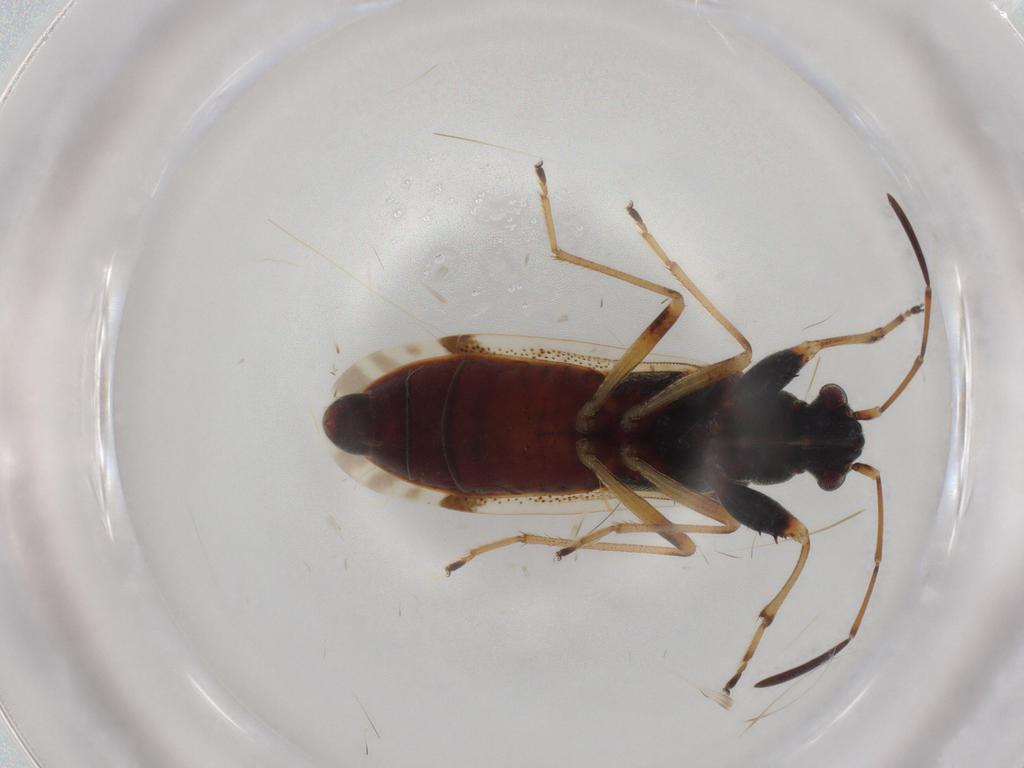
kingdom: Animalia
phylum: Arthropoda
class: Insecta
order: Hemiptera
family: Rhyparochromidae
